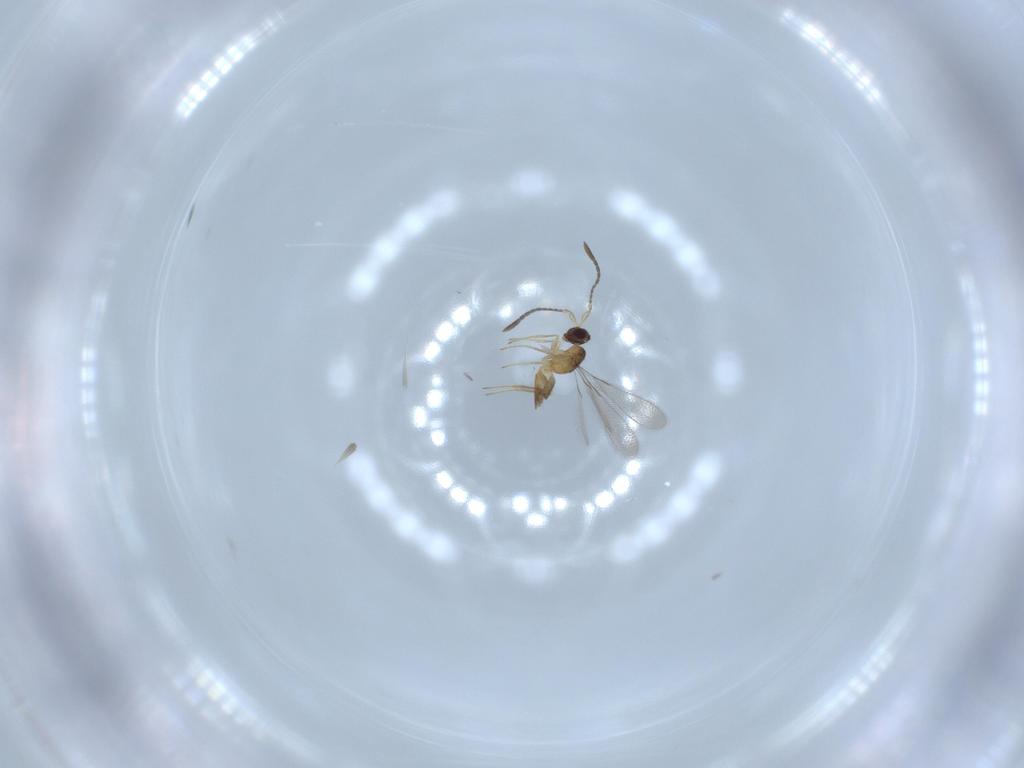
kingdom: Animalia
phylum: Arthropoda
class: Insecta
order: Hymenoptera
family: Mymaridae
